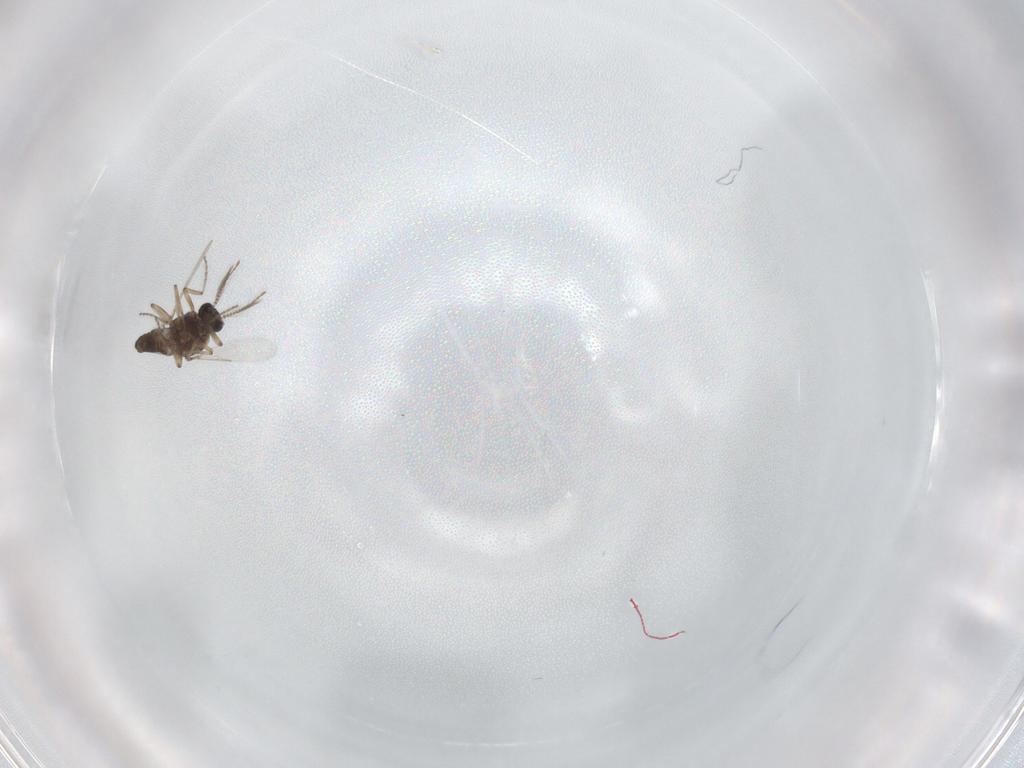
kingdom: Animalia
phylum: Arthropoda
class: Insecta
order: Diptera
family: Ceratopogonidae
